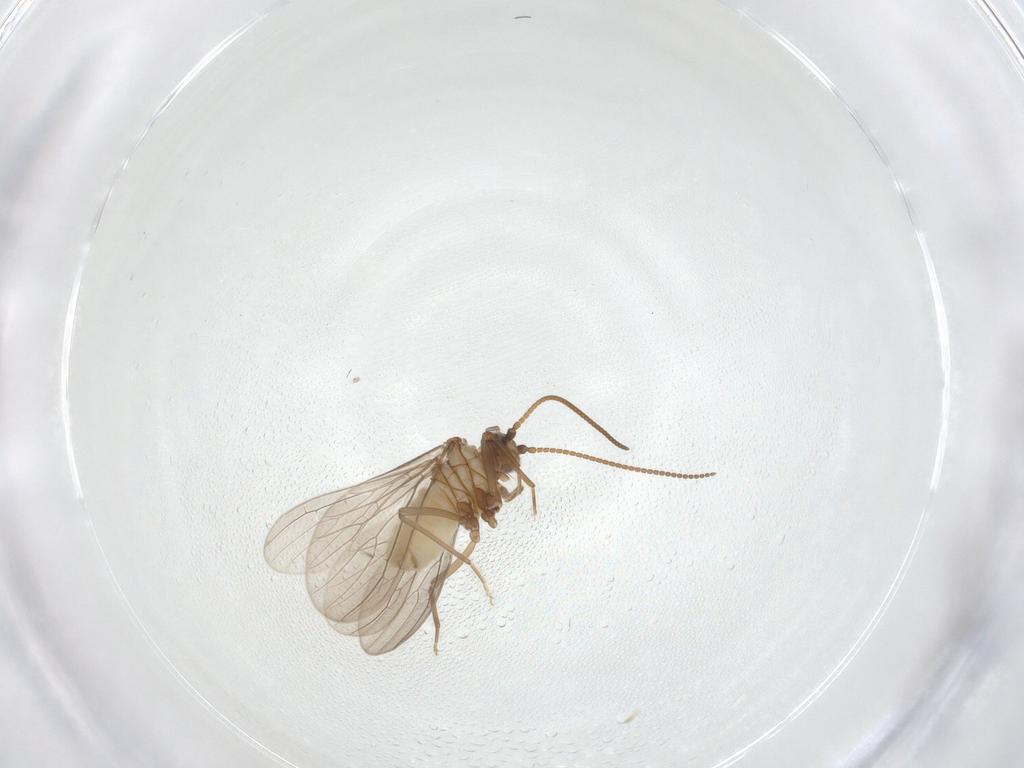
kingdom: Animalia
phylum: Arthropoda
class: Insecta
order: Neuroptera
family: Coniopterygidae
